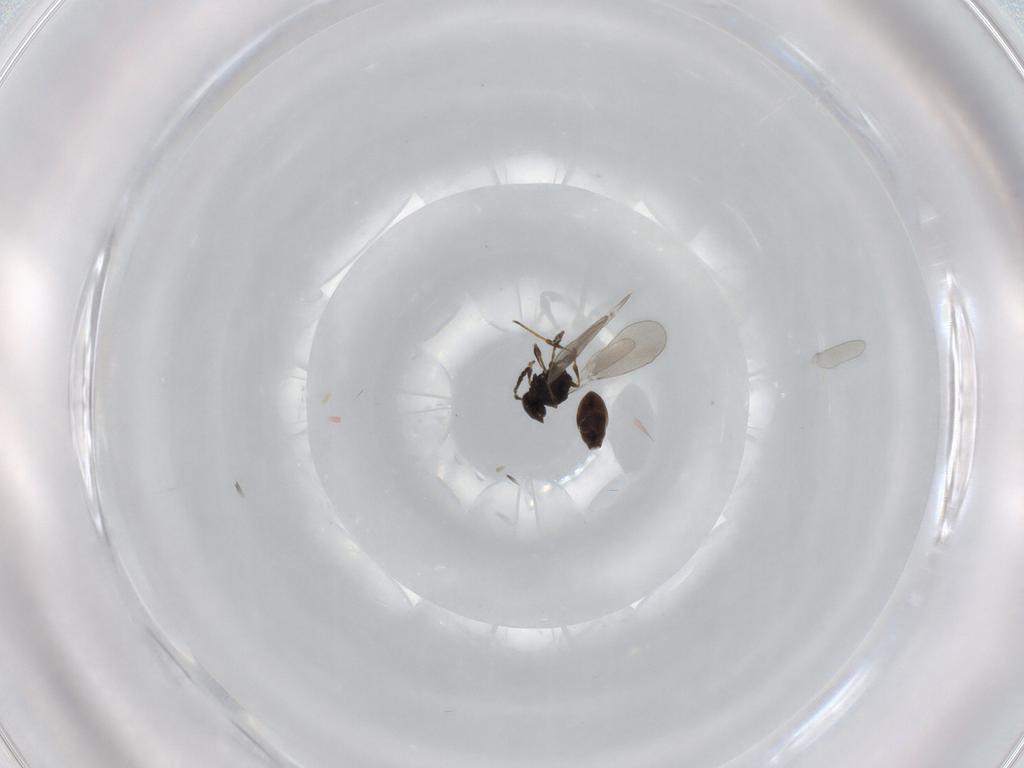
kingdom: Animalia
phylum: Arthropoda
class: Insecta
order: Hymenoptera
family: Platygastridae
